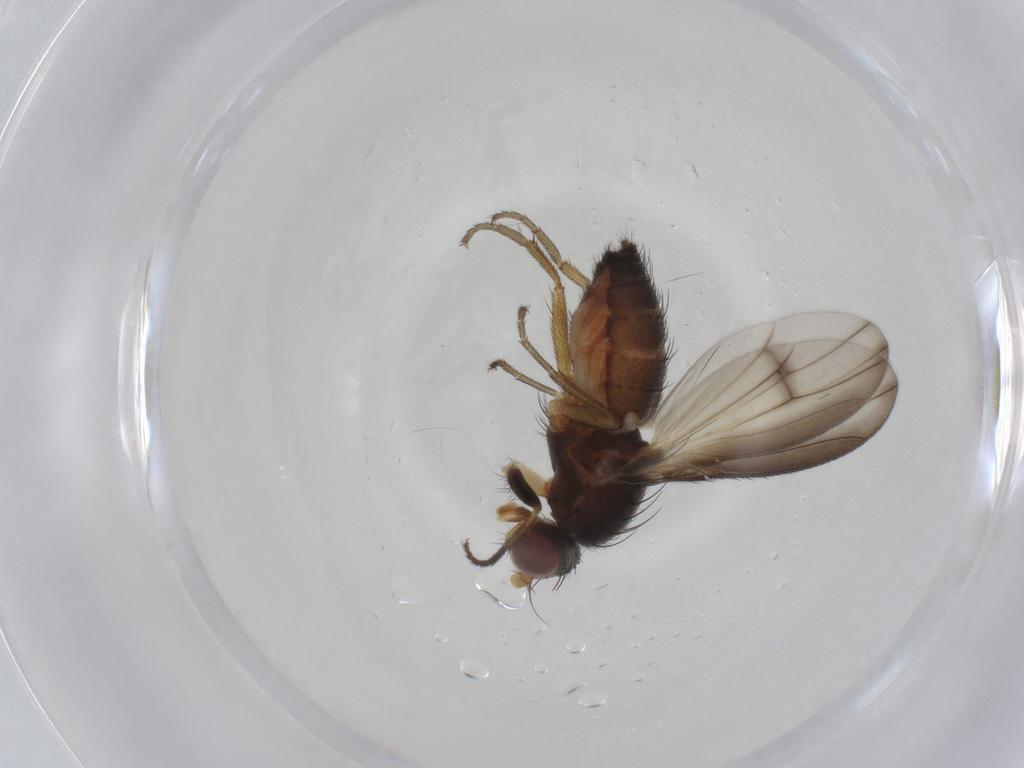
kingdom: Animalia
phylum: Arthropoda
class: Insecta
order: Diptera
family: Heleomyzidae
